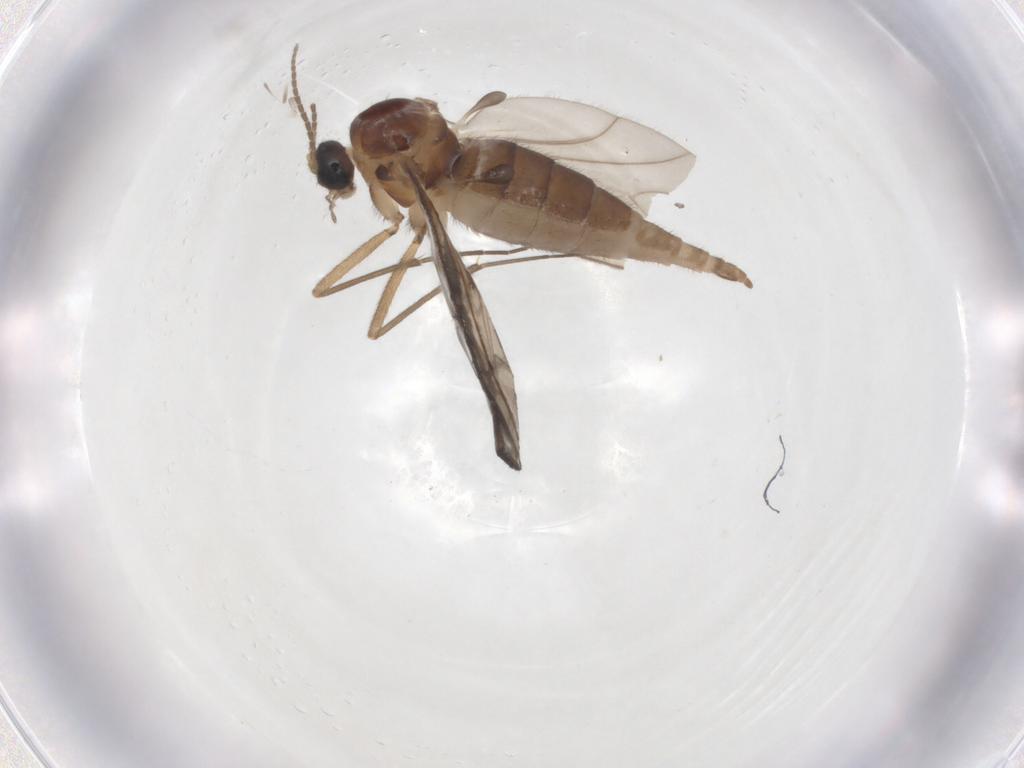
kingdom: Animalia
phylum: Arthropoda
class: Insecta
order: Diptera
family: Sciaridae
